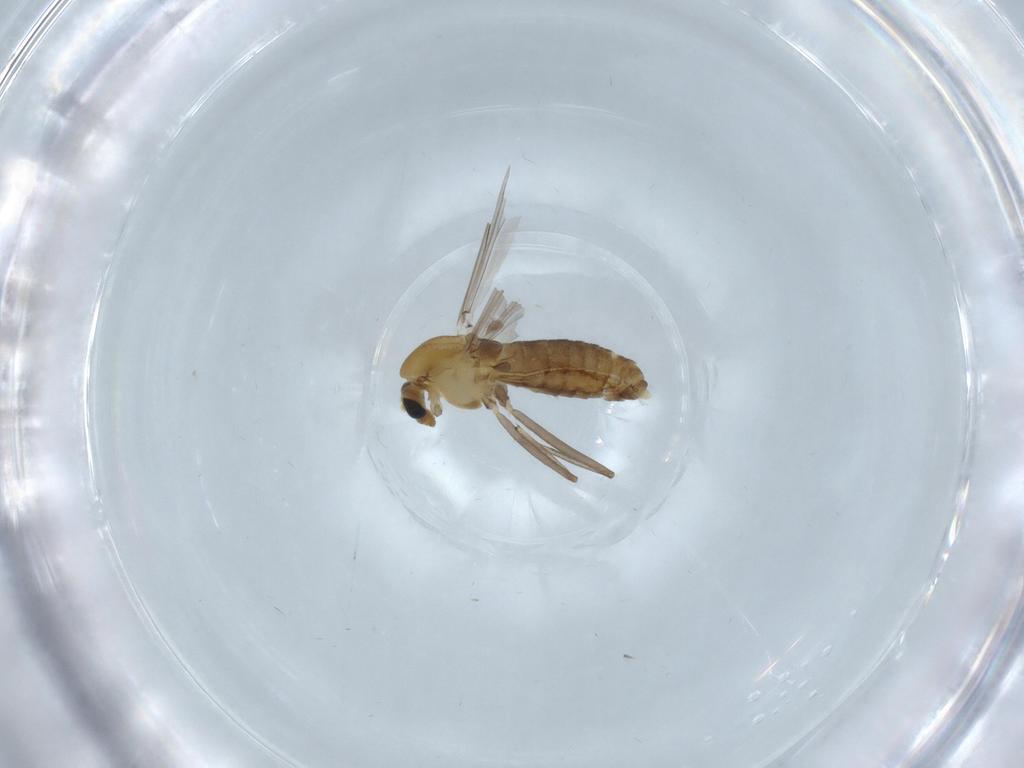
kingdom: Animalia
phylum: Arthropoda
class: Insecta
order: Diptera
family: Chironomidae
